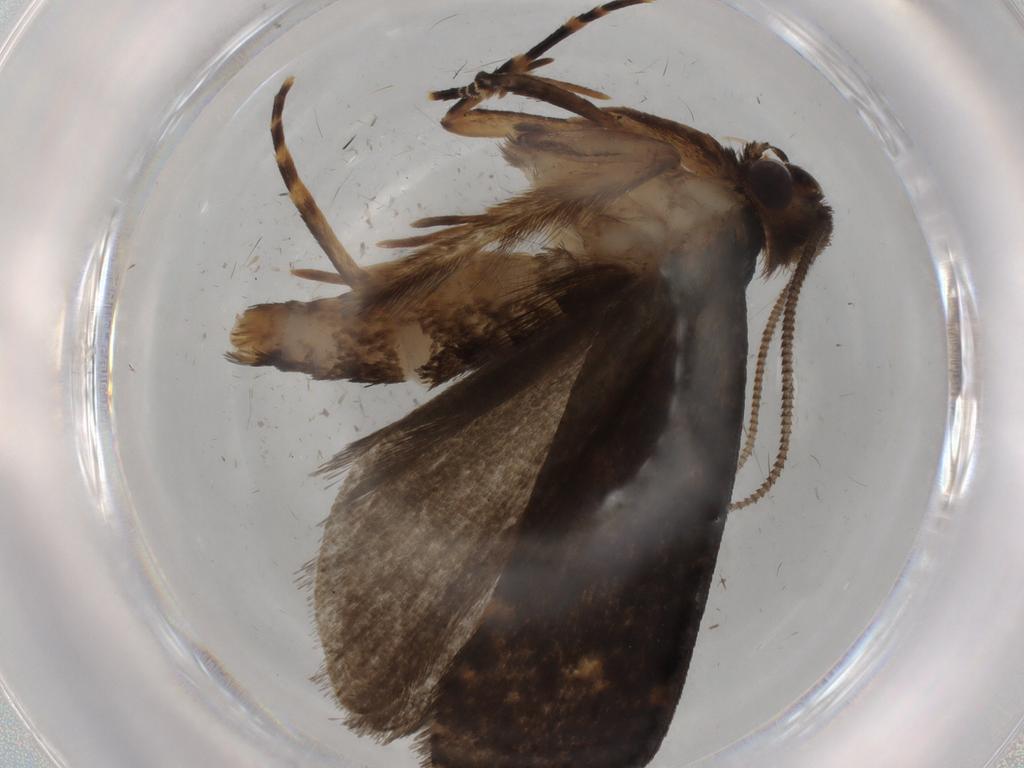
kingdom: Animalia
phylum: Arthropoda
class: Insecta
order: Lepidoptera
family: Tineidae
